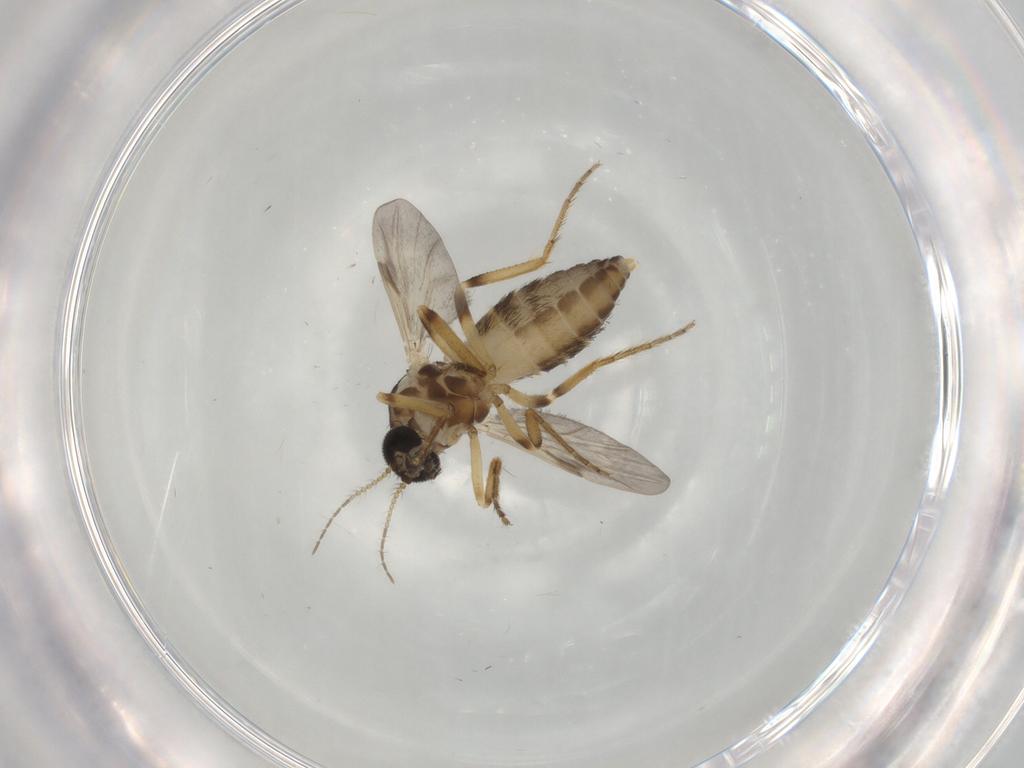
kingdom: Animalia
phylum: Arthropoda
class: Insecta
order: Diptera
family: Ceratopogonidae
